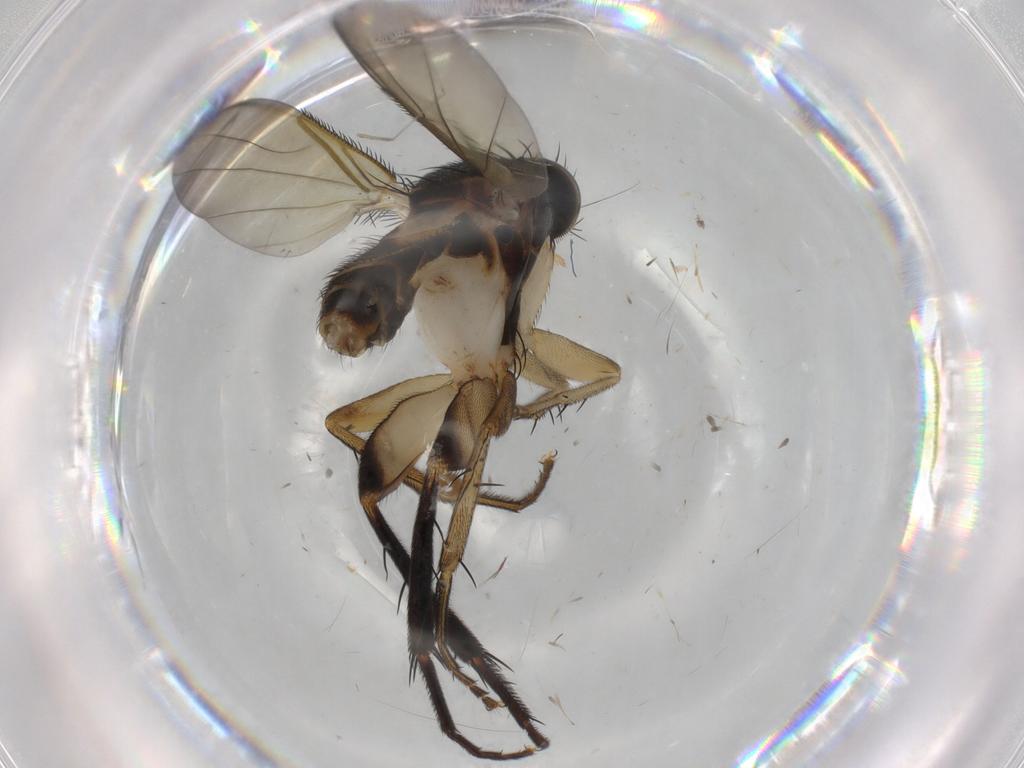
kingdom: Animalia
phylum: Arthropoda
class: Insecta
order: Diptera
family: Phoridae
